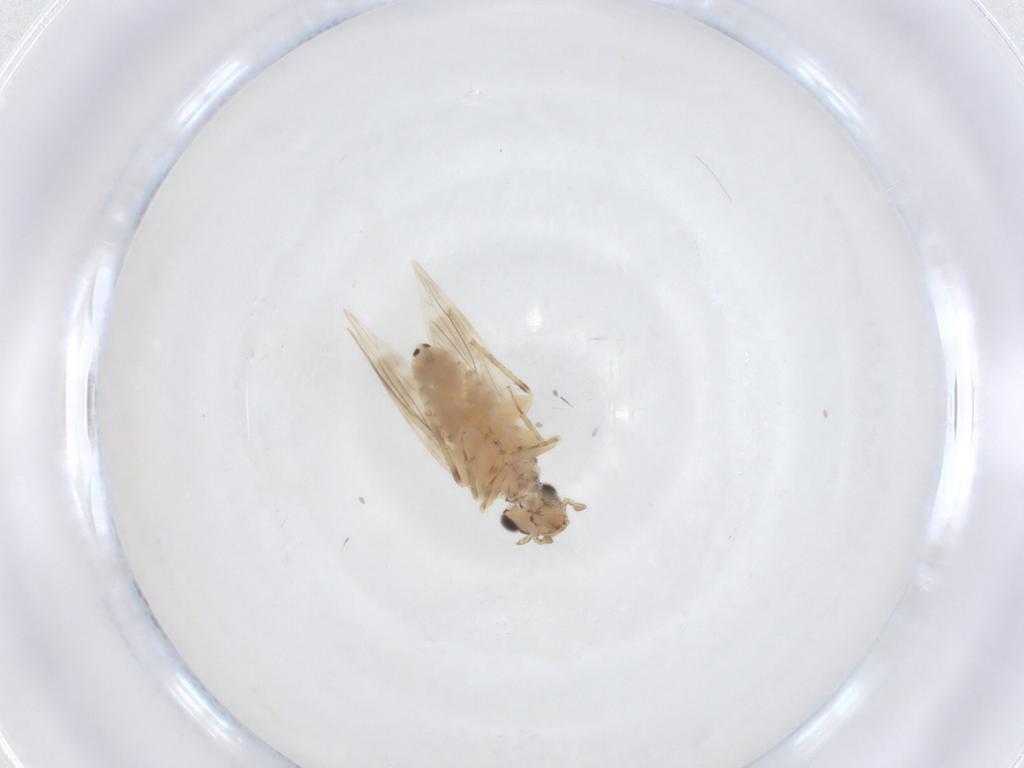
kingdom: Animalia
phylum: Arthropoda
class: Insecta
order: Psocodea
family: Lepidopsocidae
